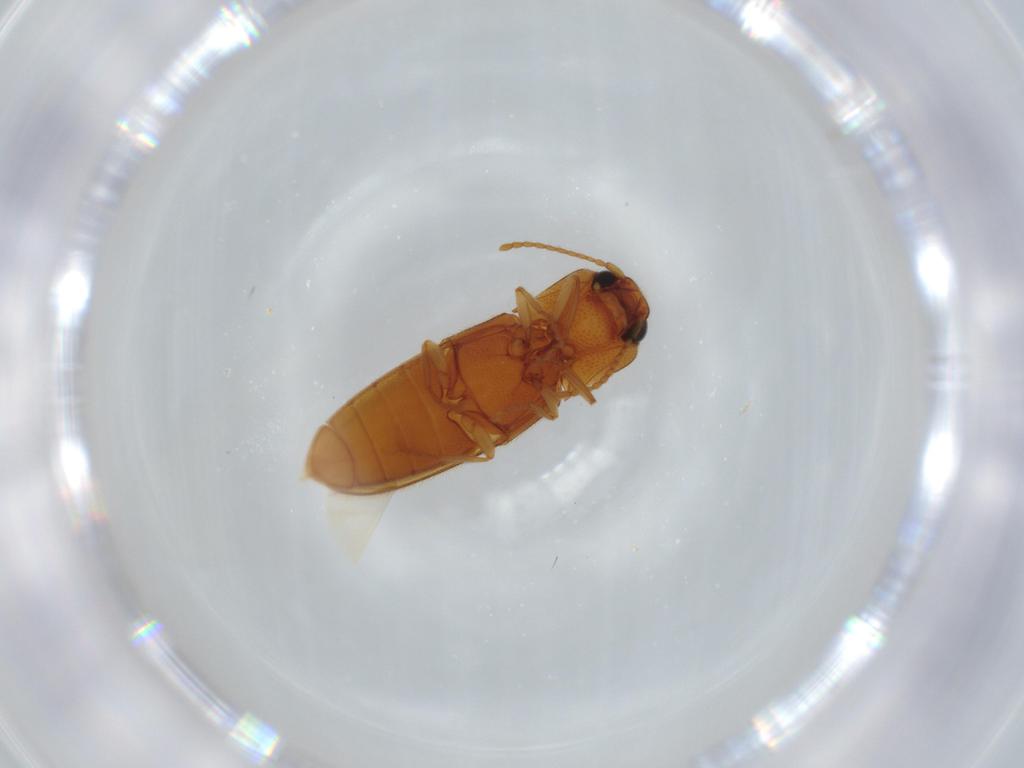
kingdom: Animalia
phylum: Arthropoda
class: Insecta
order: Coleoptera
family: Elateridae
